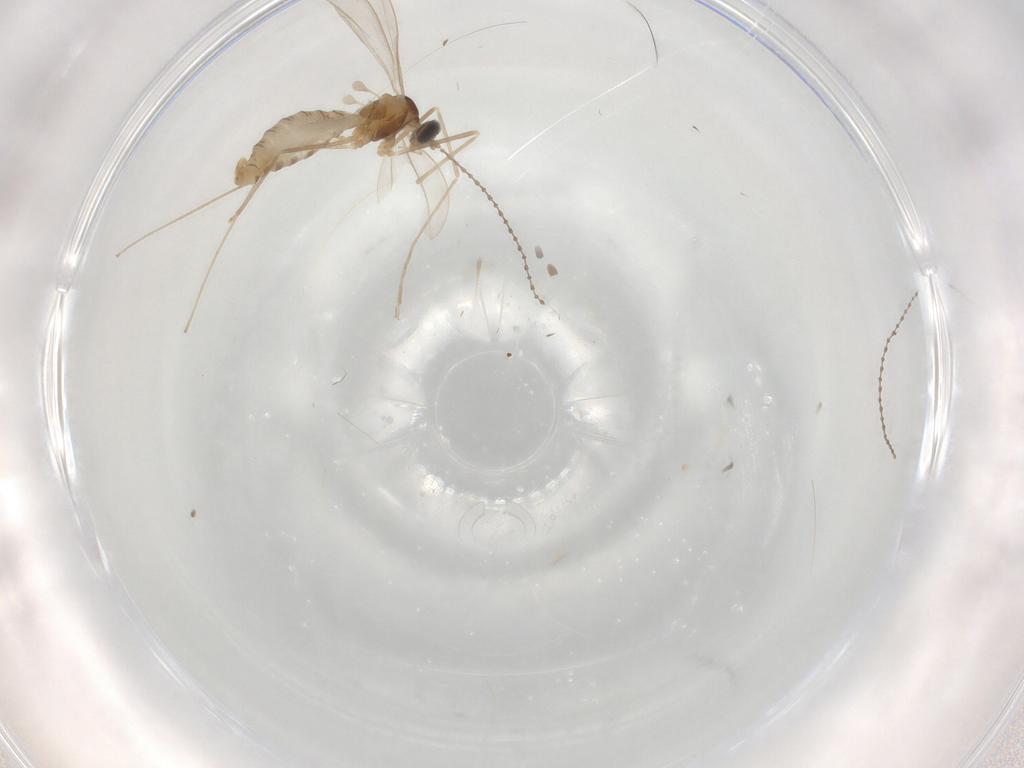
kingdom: Animalia
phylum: Arthropoda
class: Insecta
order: Diptera
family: Cecidomyiidae
